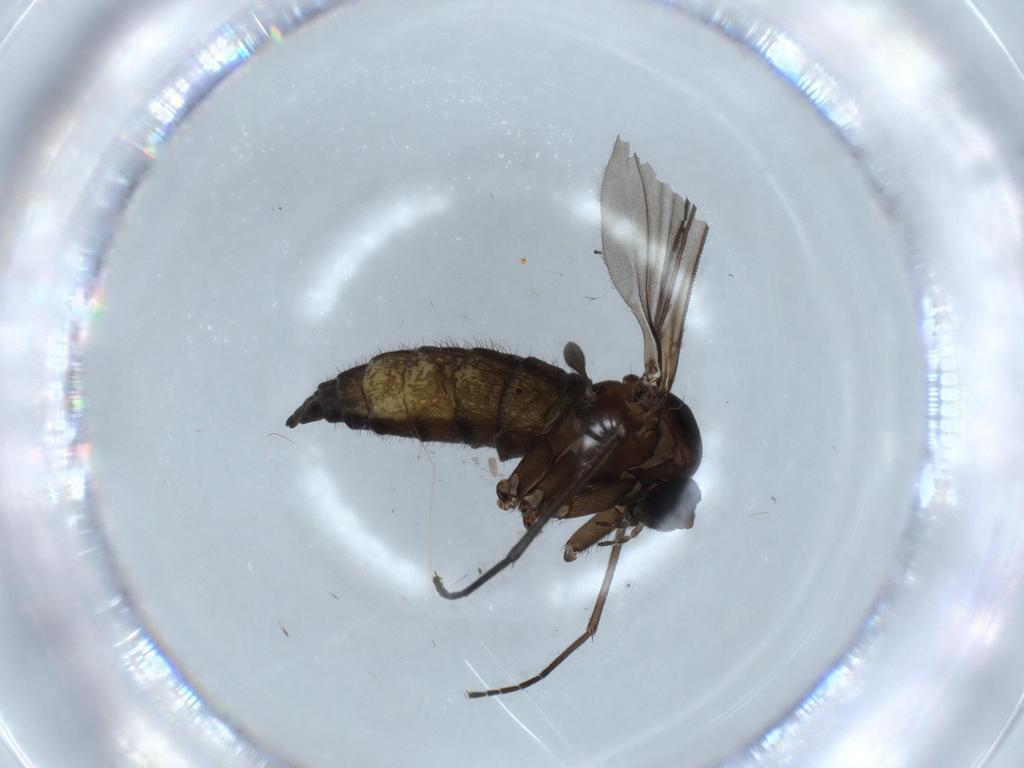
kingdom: Animalia
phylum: Arthropoda
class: Insecta
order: Diptera
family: Sciaridae
